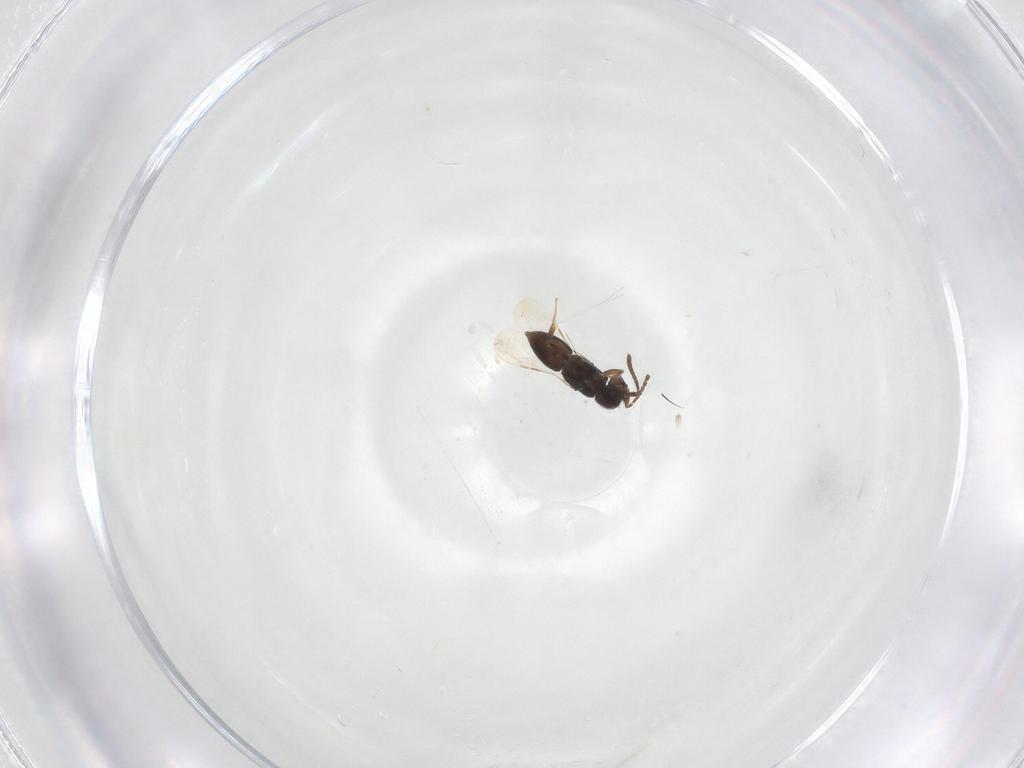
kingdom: Animalia
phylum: Arthropoda
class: Insecta
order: Hymenoptera
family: Ceraphronidae
